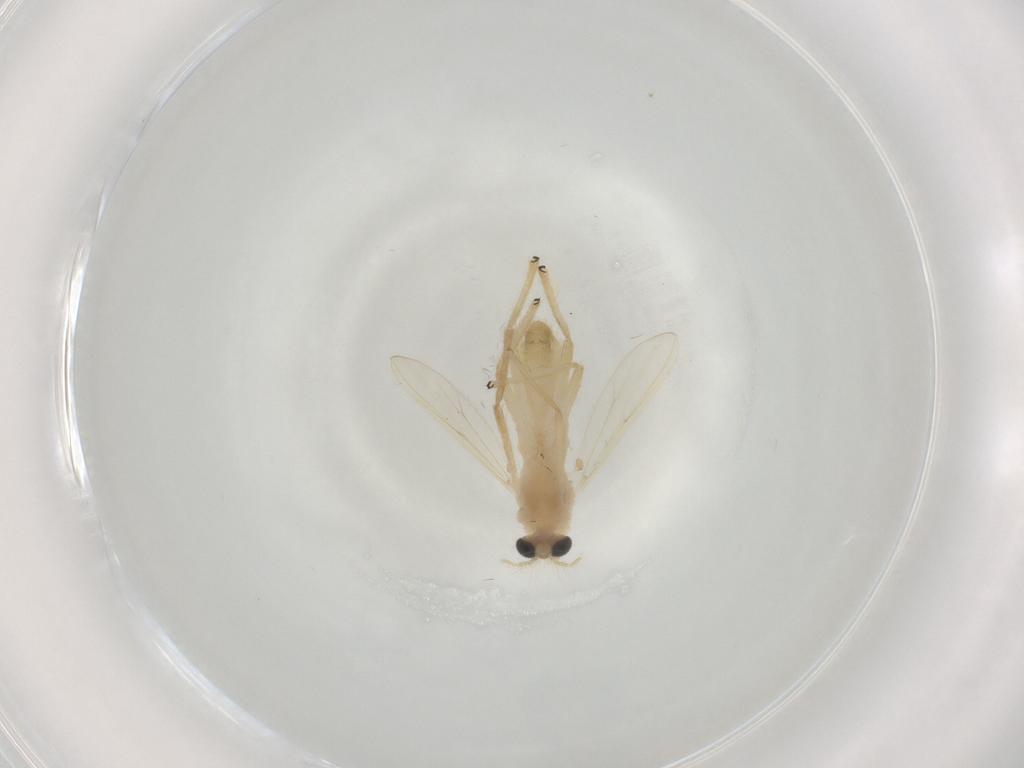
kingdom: Animalia
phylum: Arthropoda
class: Insecta
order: Diptera
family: Chironomidae
